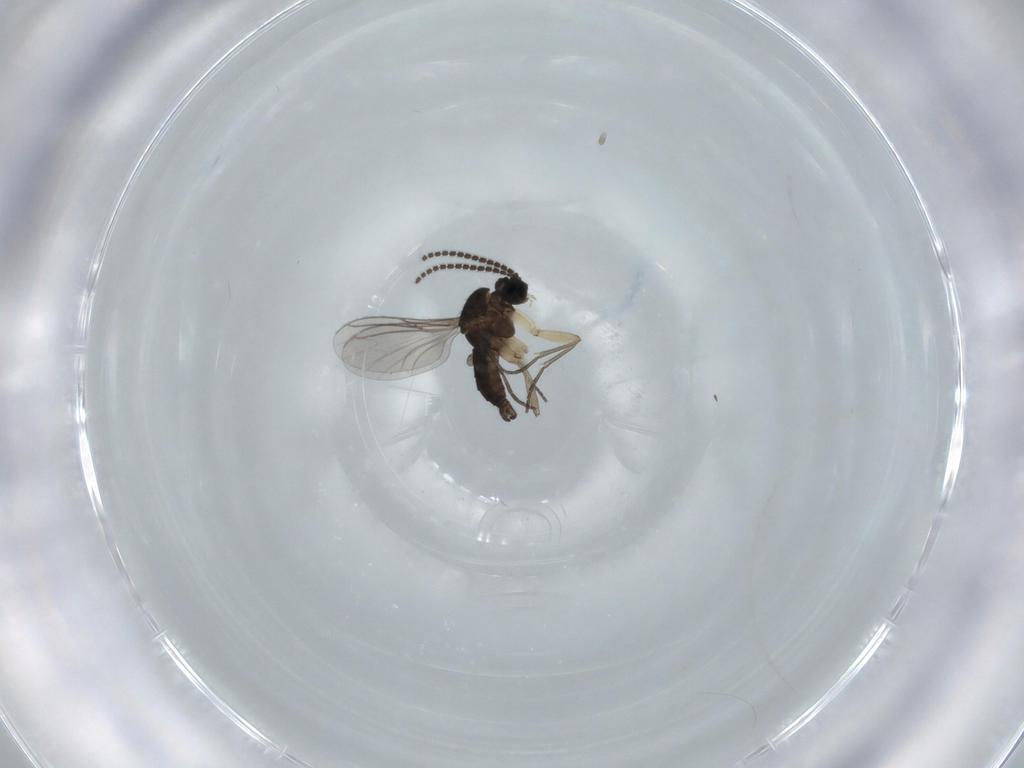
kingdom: Animalia
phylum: Arthropoda
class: Insecta
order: Diptera
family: Sciaridae
